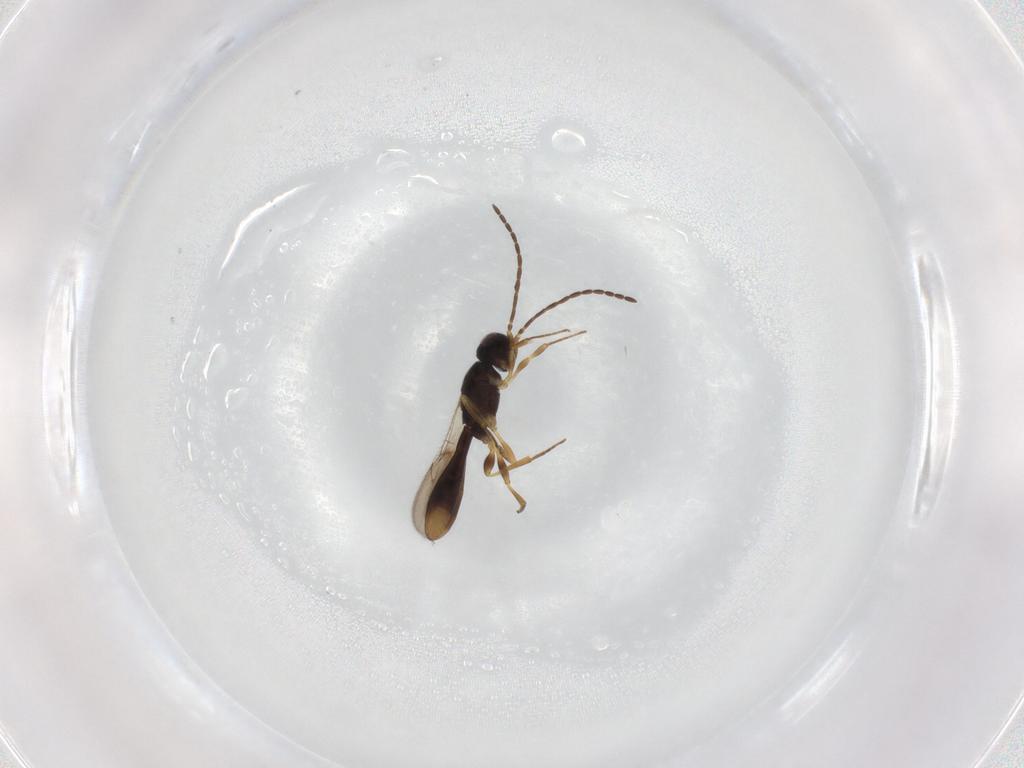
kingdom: Animalia
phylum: Arthropoda
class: Insecta
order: Hymenoptera
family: Scelionidae
